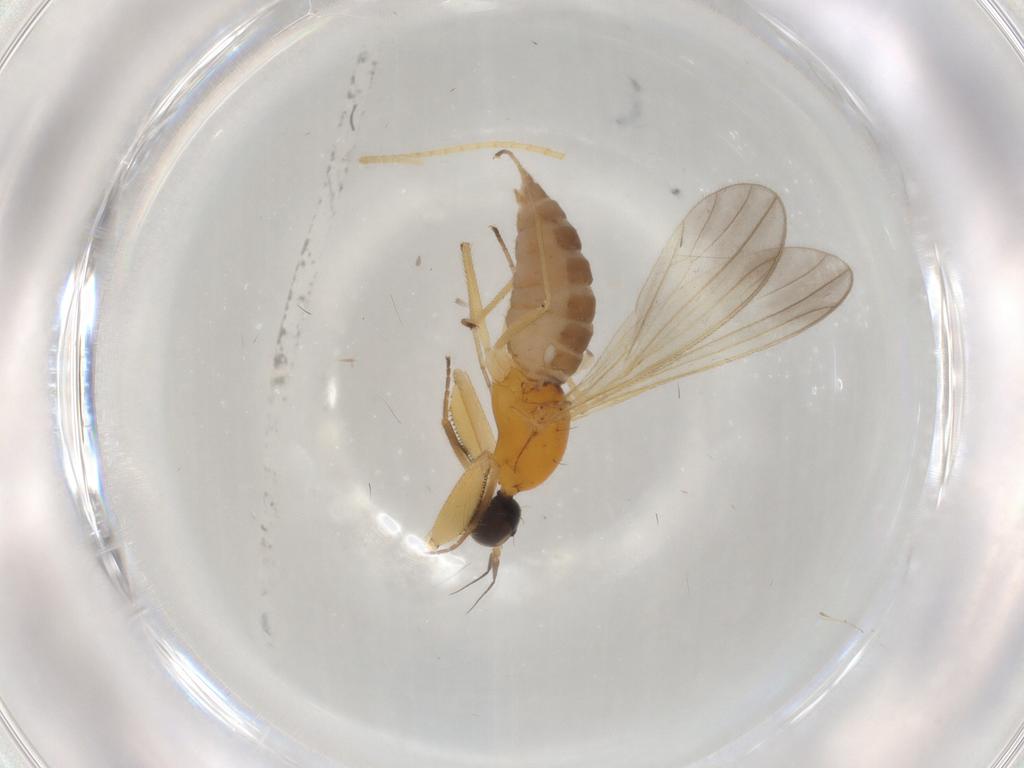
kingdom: Animalia
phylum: Arthropoda
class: Insecta
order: Diptera
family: Empididae
